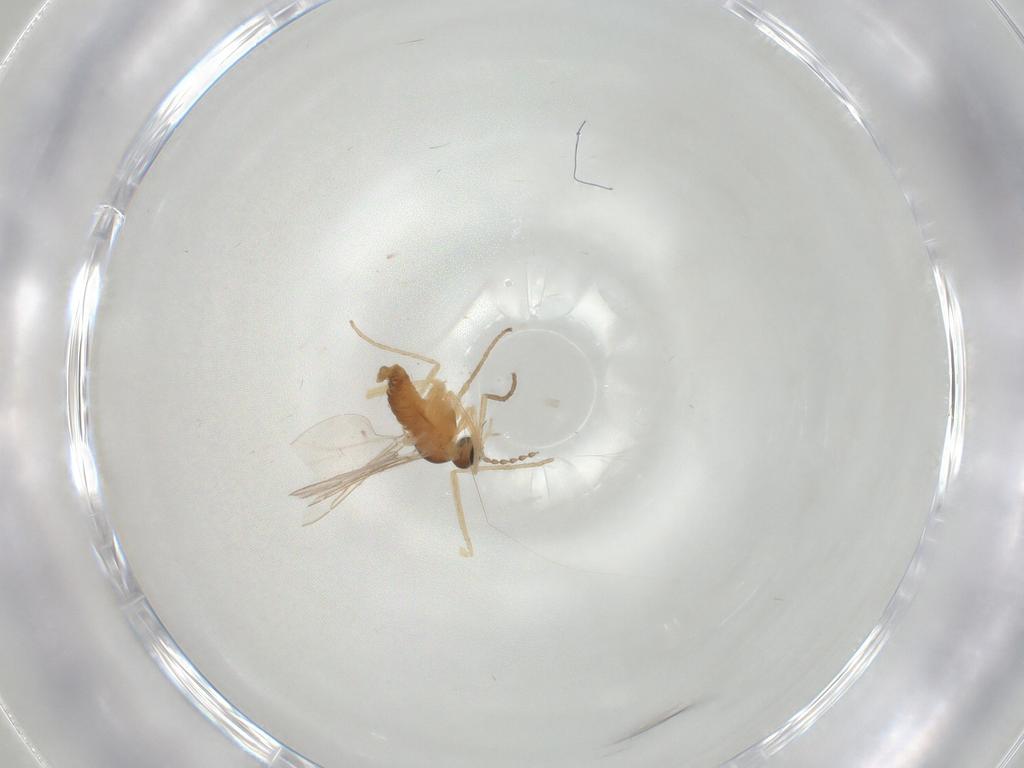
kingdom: Animalia
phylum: Arthropoda
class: Insecta
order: Diptera
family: Cecidomyiidae
